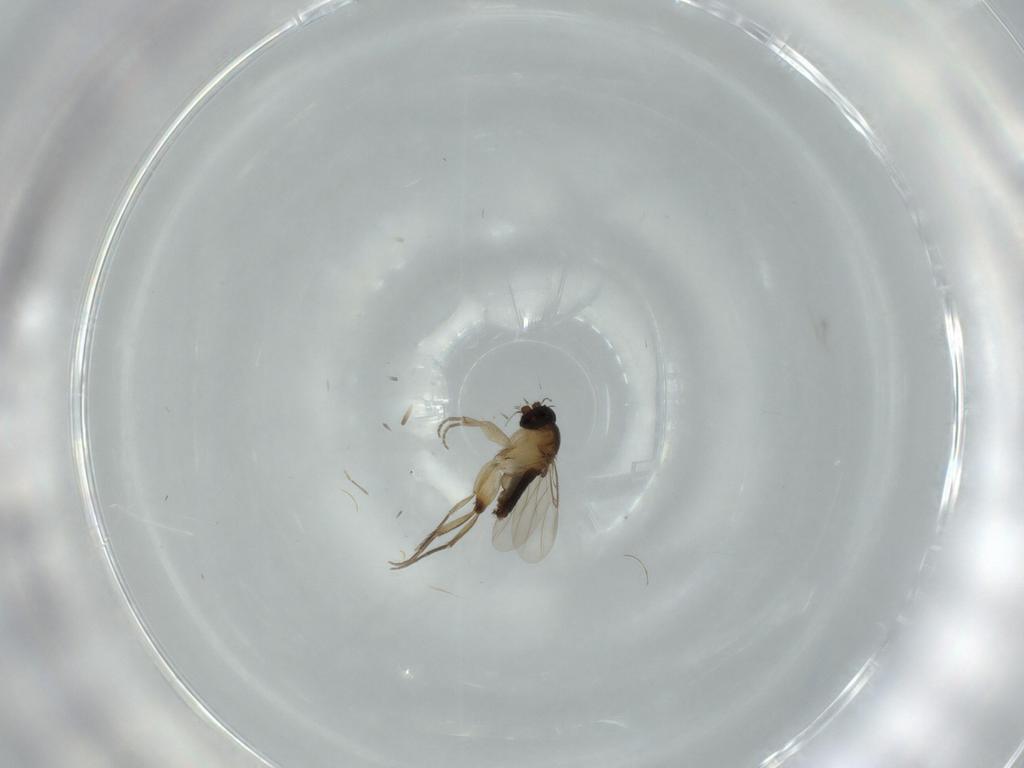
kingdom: Animalia
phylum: Arthropoda
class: Insecta
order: Diptera
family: Phoridae
